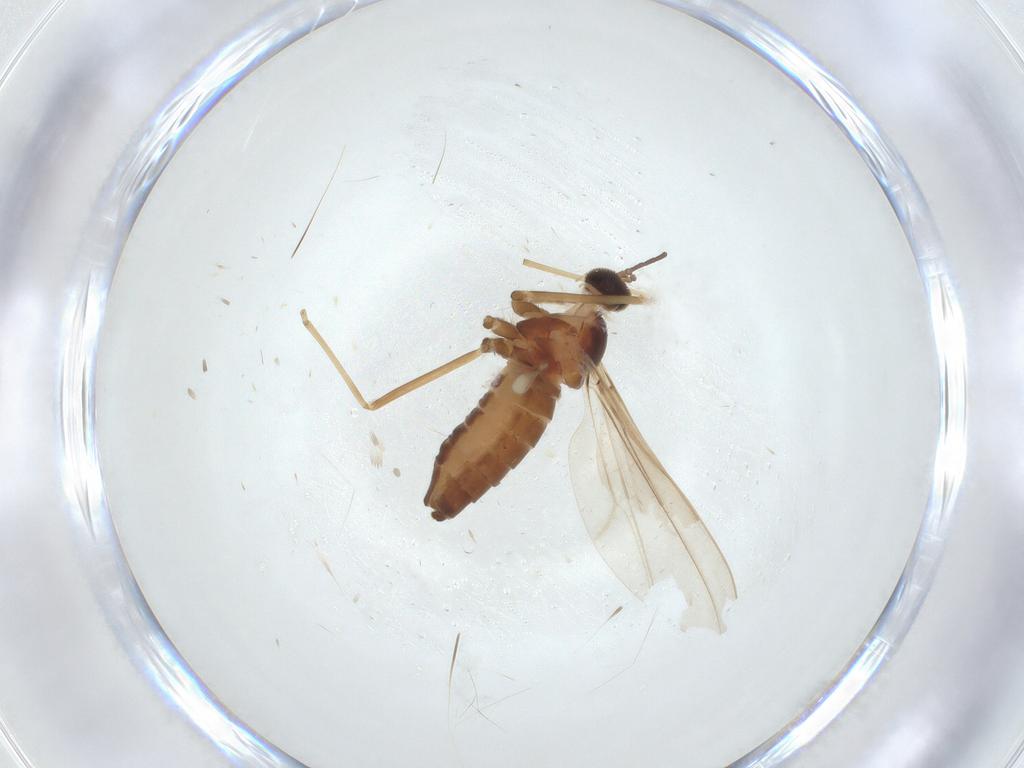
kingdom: Animalia
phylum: Arthropoda
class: Insecta
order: Diptera
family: Cecidomyiidae
